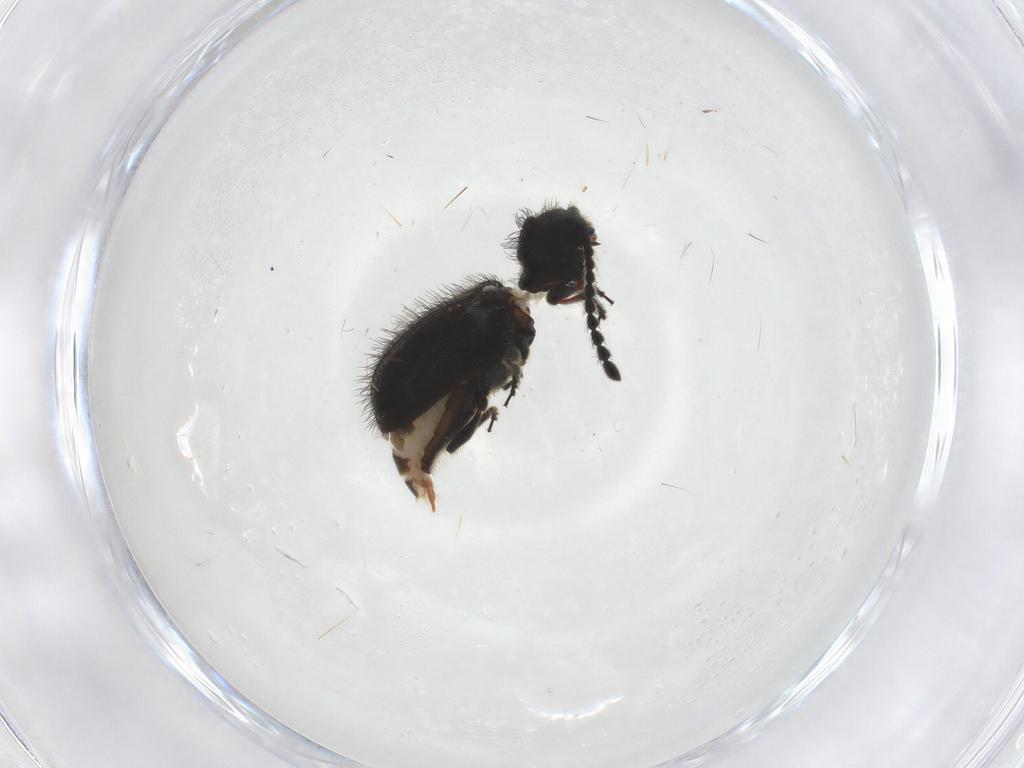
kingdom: Animalia
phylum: Arthropoda
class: Insecta
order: Coleoptera
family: Ptinidae
